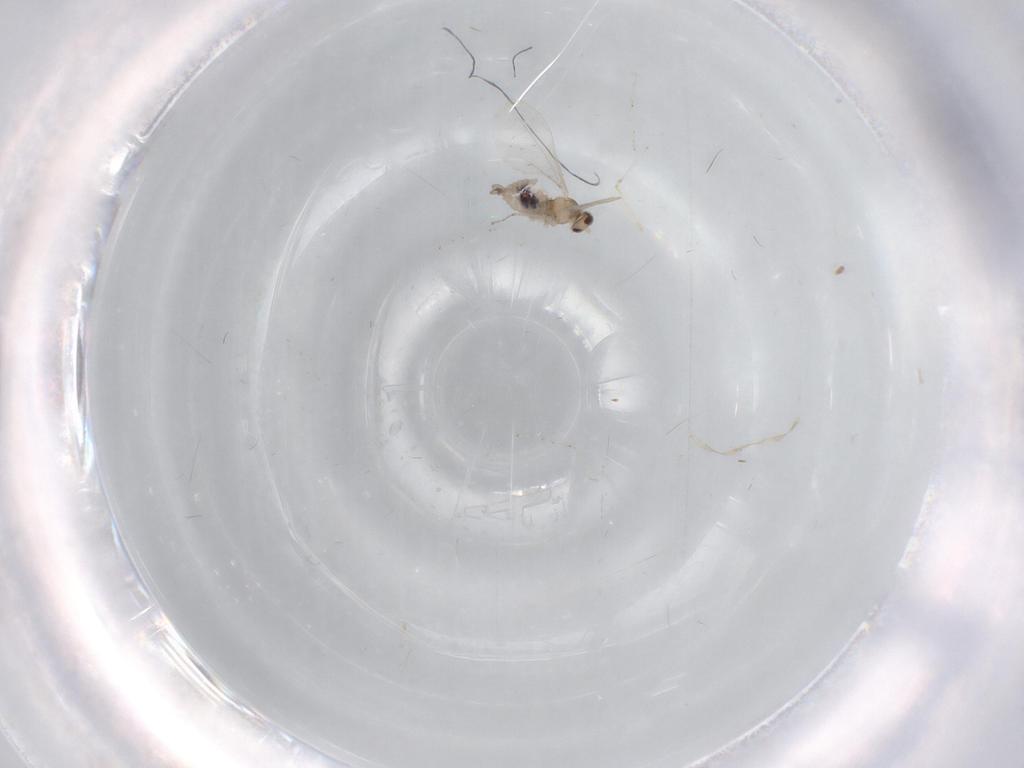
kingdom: Animalia
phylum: Arthropoda
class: Insecta
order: Diptera
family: Cecidomyiidae
